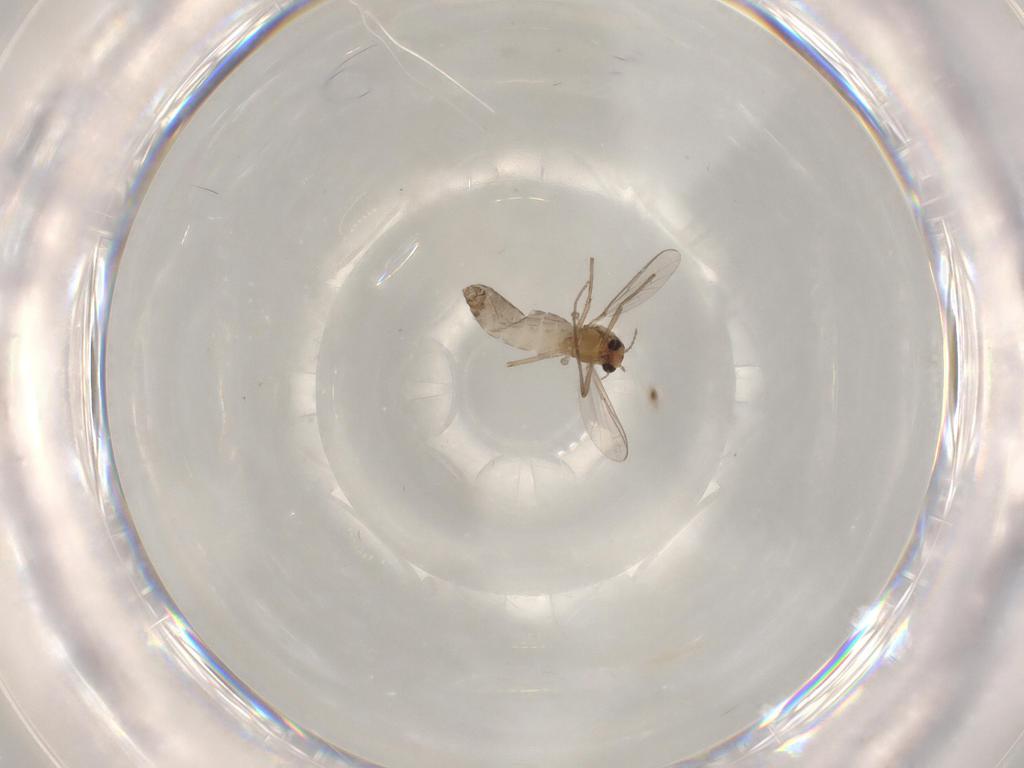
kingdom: Animalia
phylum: Arthropoda
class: Insecta
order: Diptera
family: Chironomidae
